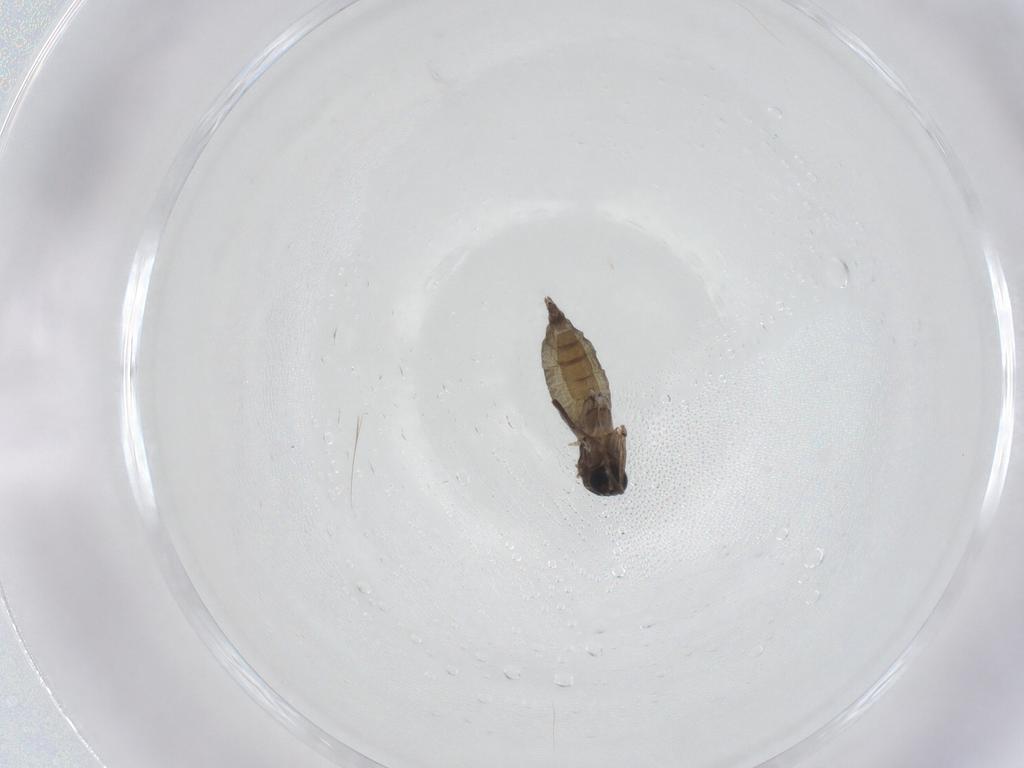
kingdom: Animalia
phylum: Arthropoda
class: Insecta
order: Diptera
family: Sciaridae
